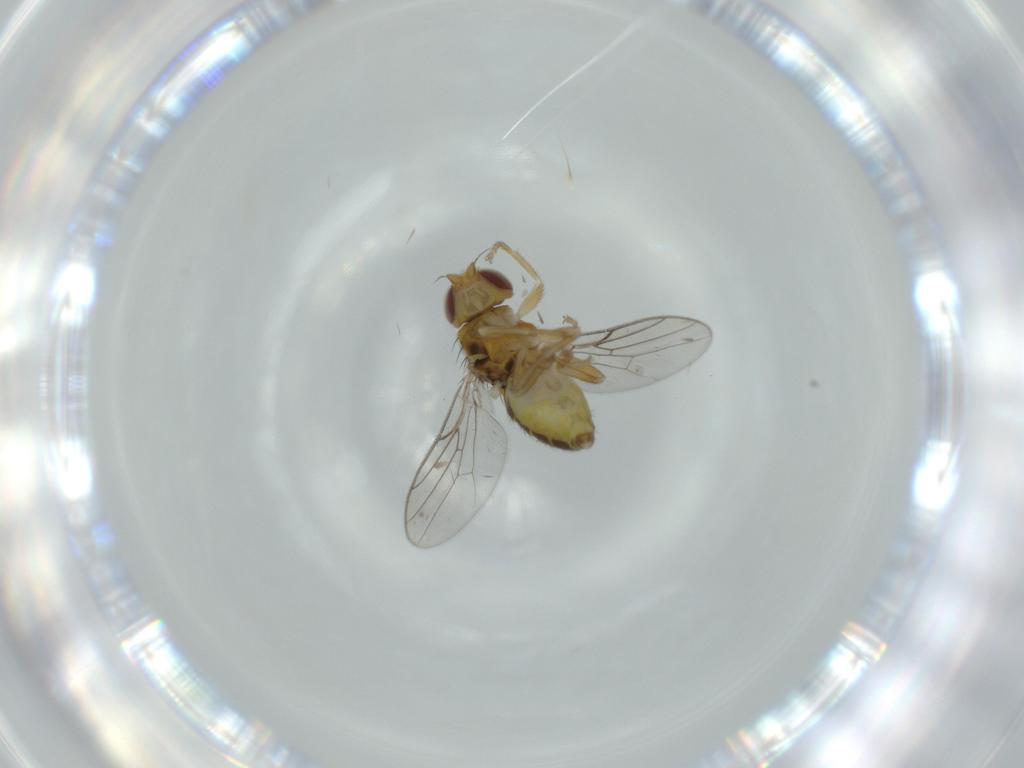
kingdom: Animalia
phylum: Arthropoda
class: Insecta
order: Diptera
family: Chloropidae
